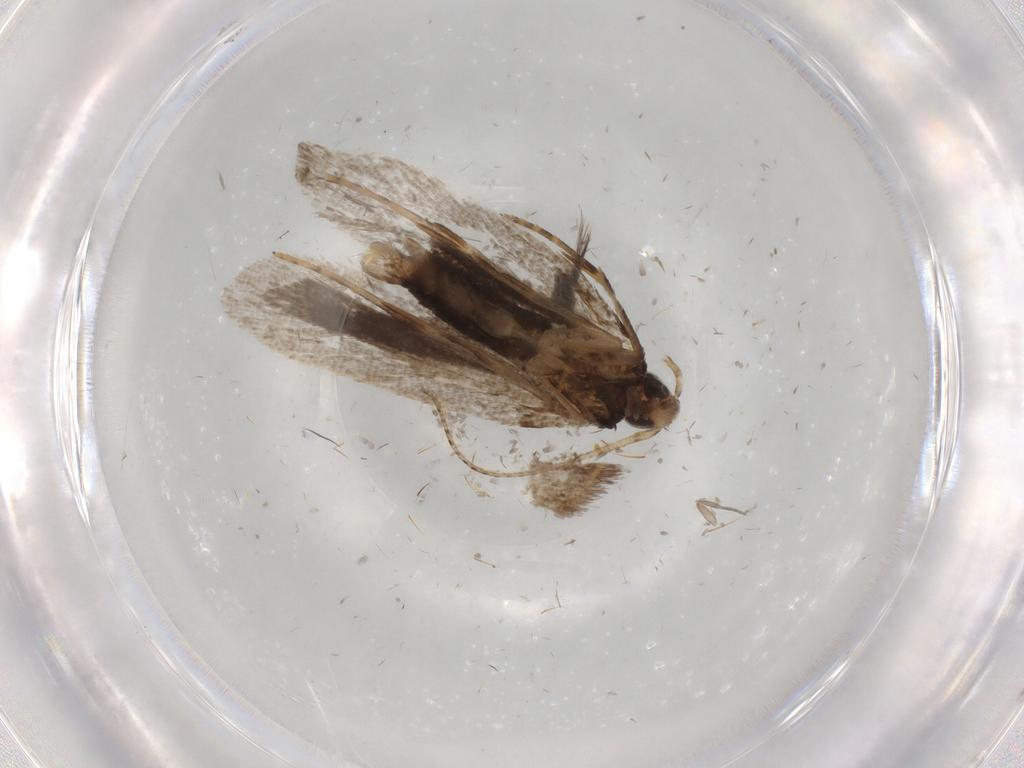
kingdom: Animalia
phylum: Arthropoda
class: Insecta
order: Lepidoptera
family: Gelechiidae
